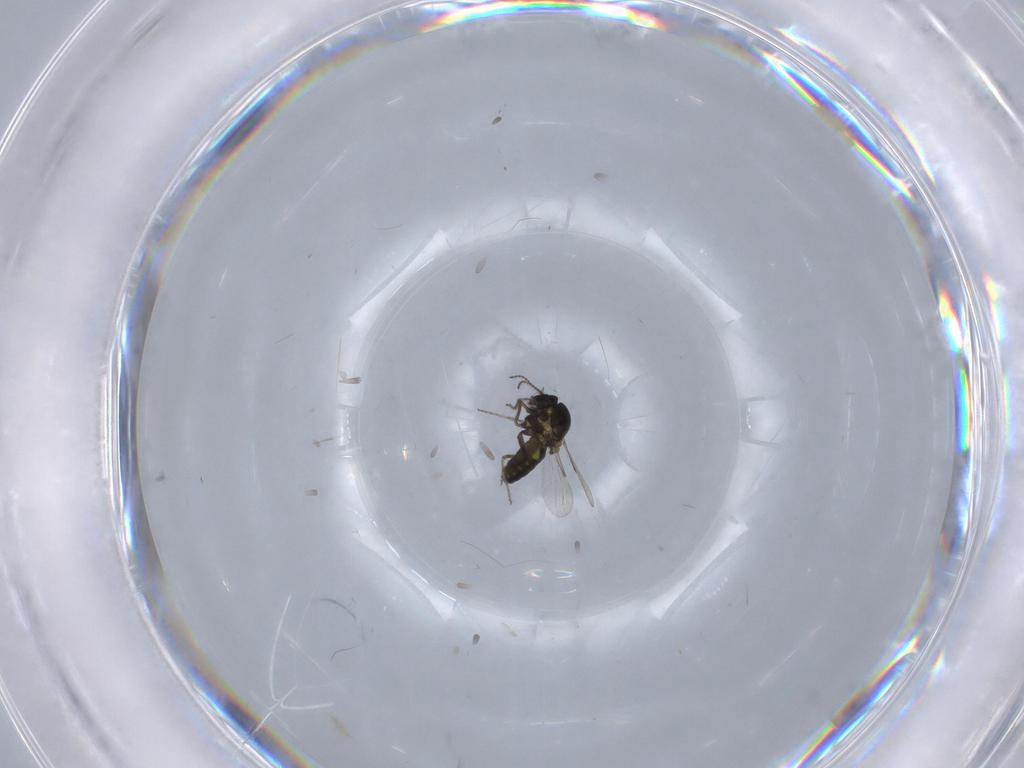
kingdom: Animalia
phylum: Arthropoda
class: Insecta
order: Diptera
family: Ceratopogonidae
